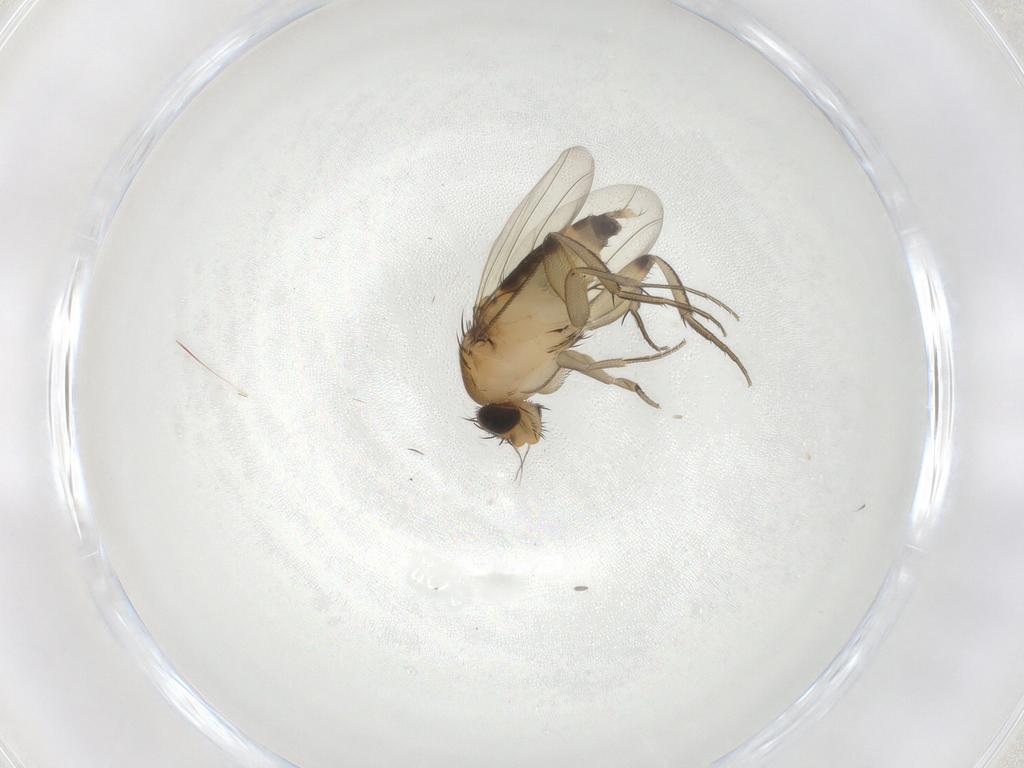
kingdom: Animalia
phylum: Arthropoda
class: Insecta
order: Diptera
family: Phoridae
